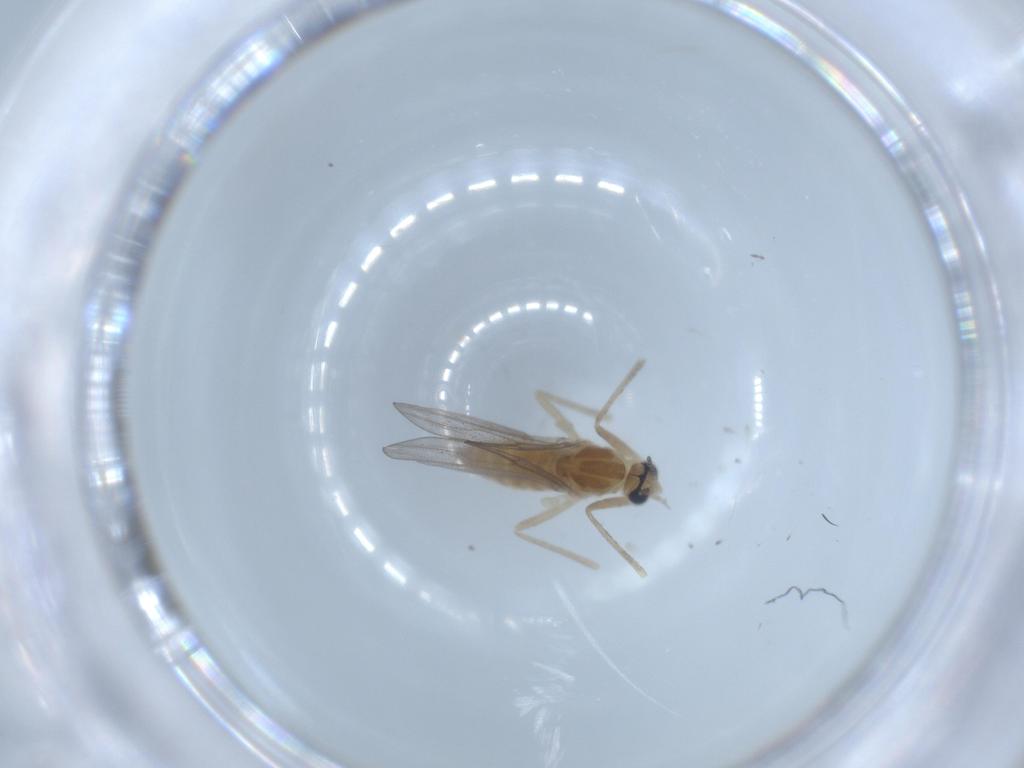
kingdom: Animalia
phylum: Arthropoda
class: Insecta
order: Diptera
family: Cecidomyiidae
